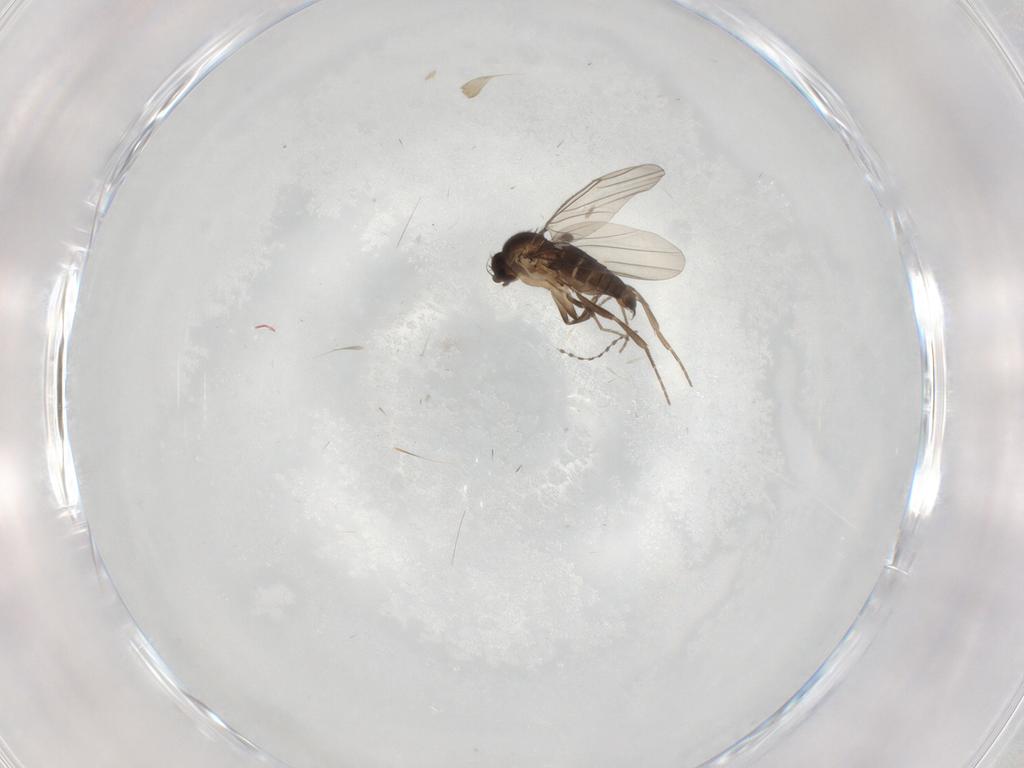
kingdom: Animalia
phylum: Arthropoda
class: Insecta
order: Diptera
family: Phoridae
